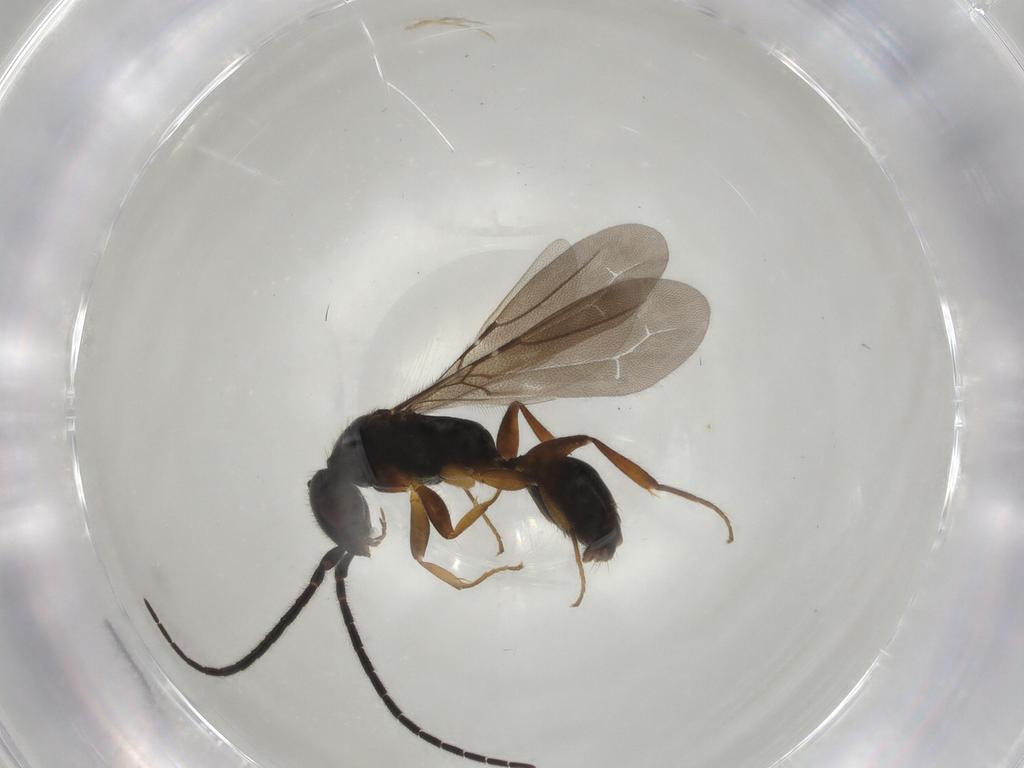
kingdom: Animalia
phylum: Arthropoda
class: Insecta
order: Hymenoptera
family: Bethylidae
